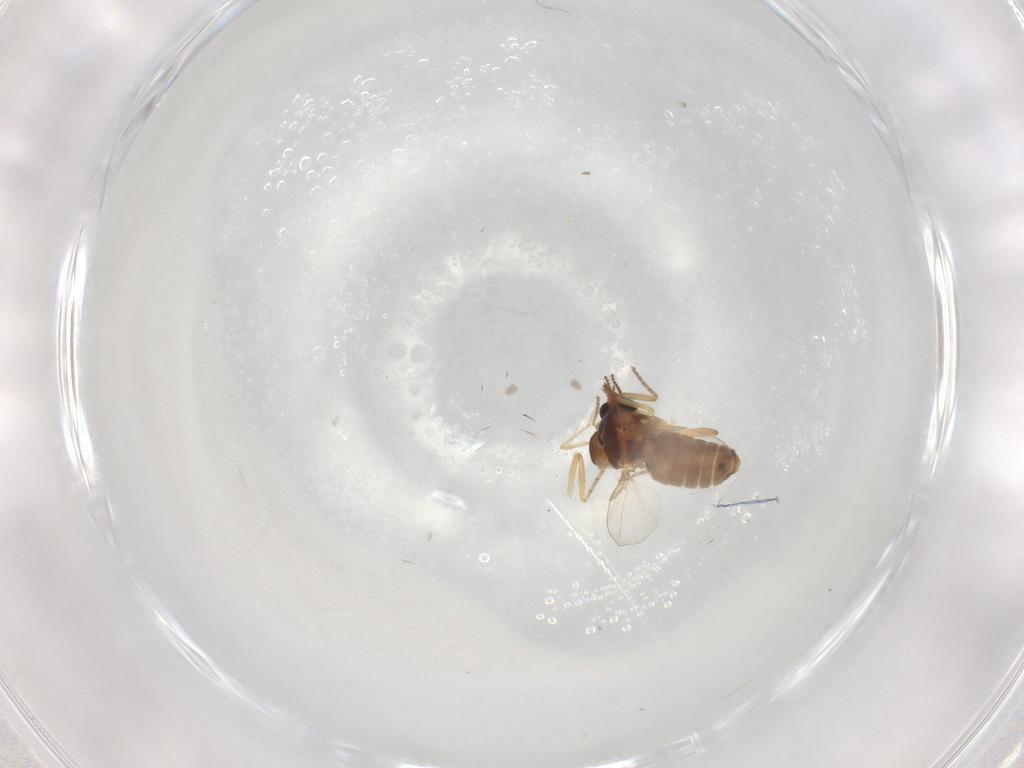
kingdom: Animalia
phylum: Arthropoda
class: Insecta
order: Diptera
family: Ceratopogonidae
